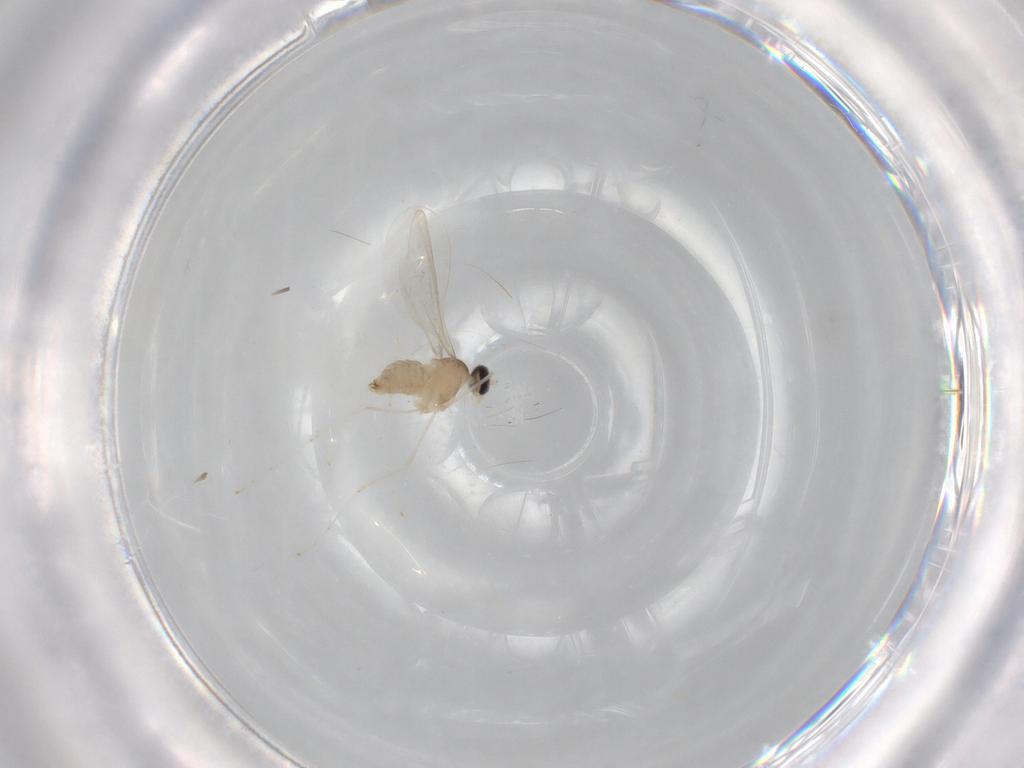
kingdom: Animalia
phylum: Arthropoda
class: Insecta
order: Diptera
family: Cecidomyiidae
